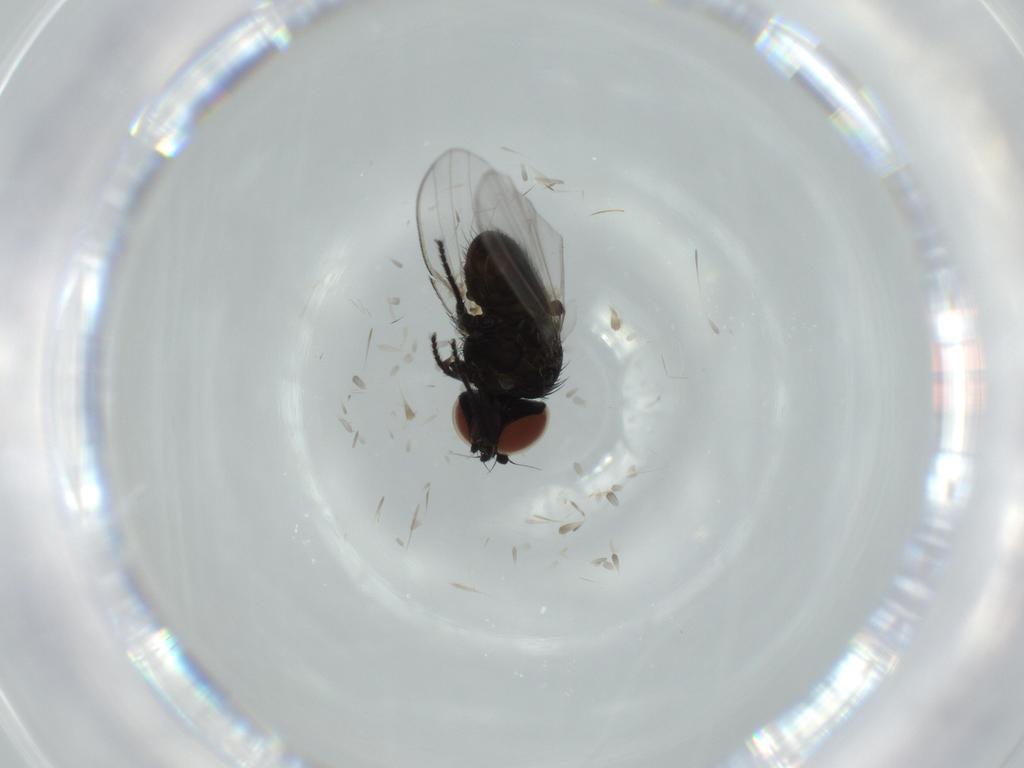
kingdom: Animalia
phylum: Arthropoda
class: Insecta
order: Diptera
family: Milichiidae
